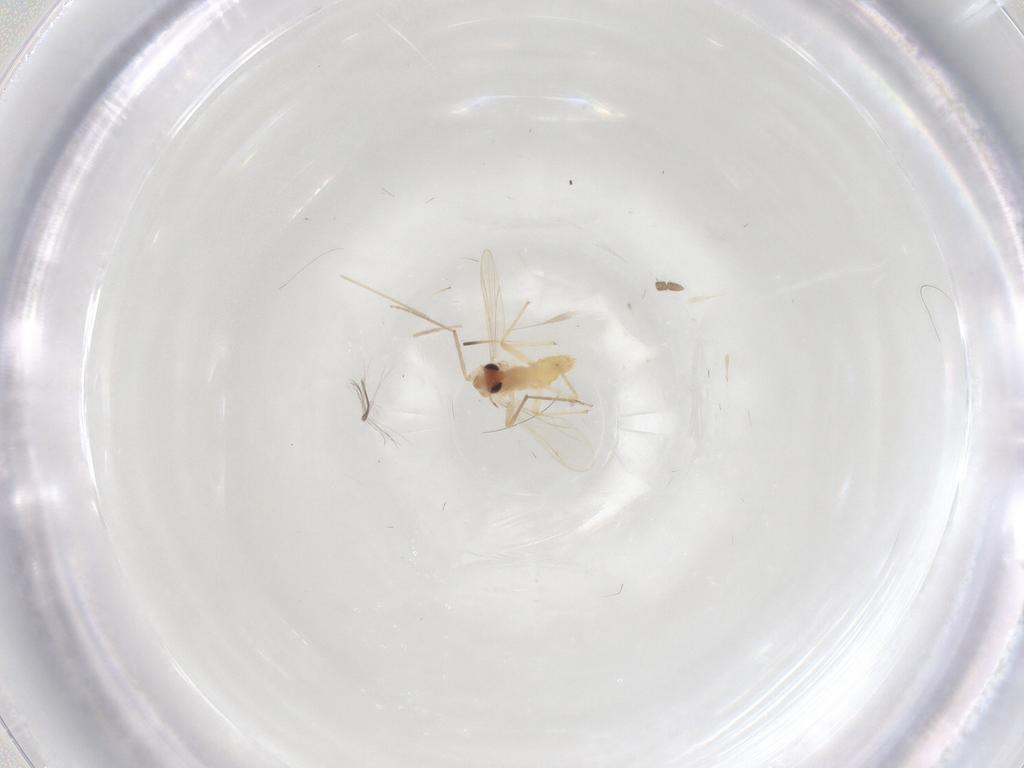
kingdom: Animalia
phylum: Arthropoda
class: Insecta
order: Diptera
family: Chironomidae
